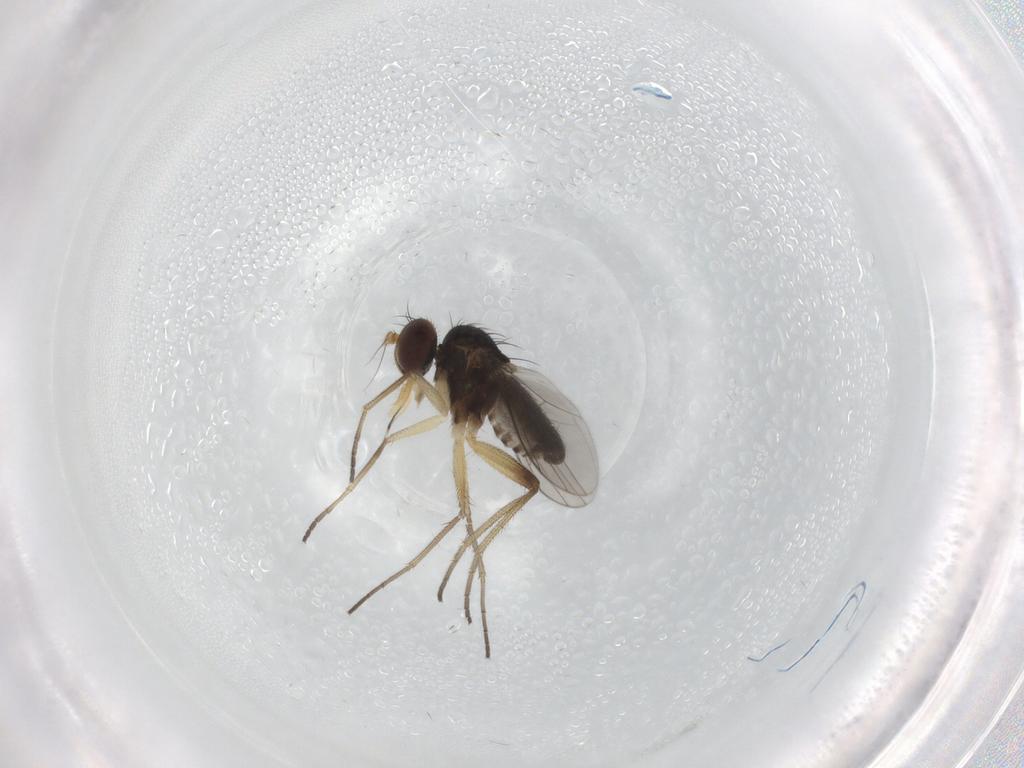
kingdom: Animalia
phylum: Arthropoda
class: Insecta
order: Diptera
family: Dolichopodidae
